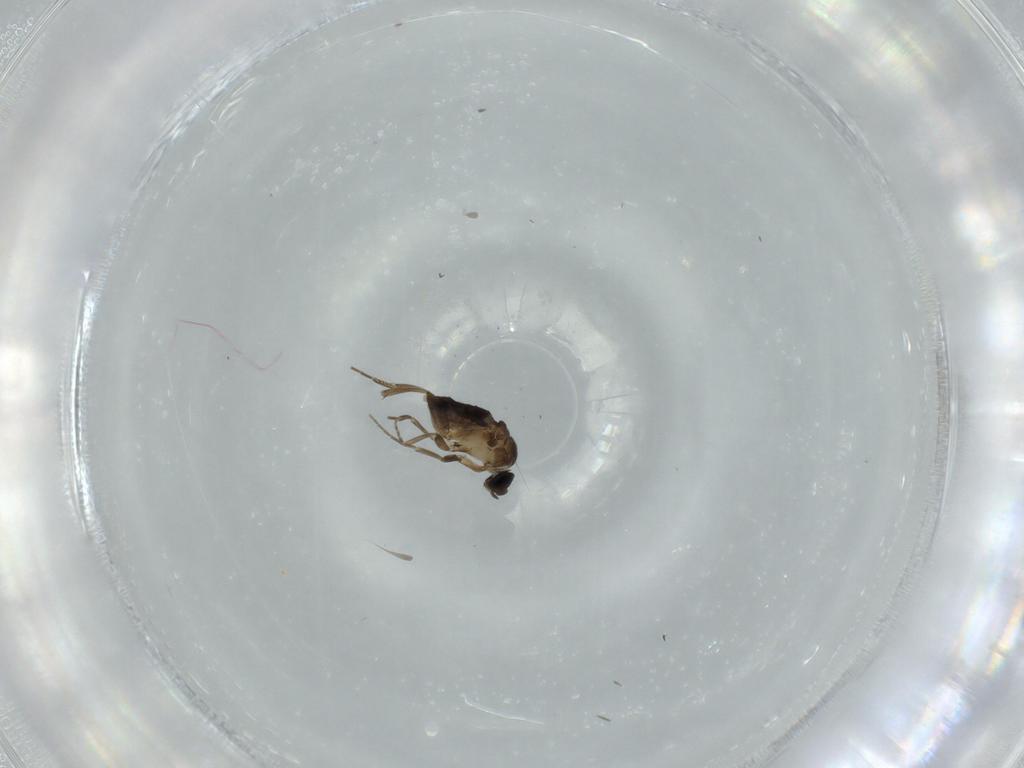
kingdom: Animalia
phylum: Arthropoda
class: Insecta
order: Diptera
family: Phoridae
